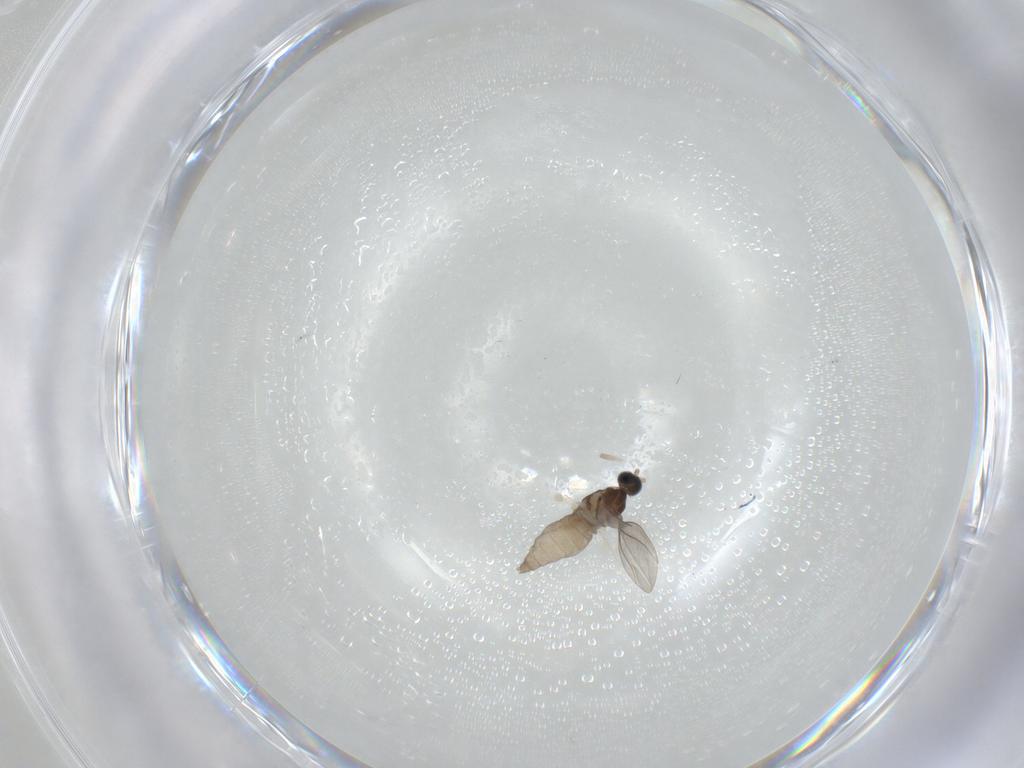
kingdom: Animalia
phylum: Arthropoda
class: Insecta
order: Diptera
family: Cecidomyiidae
